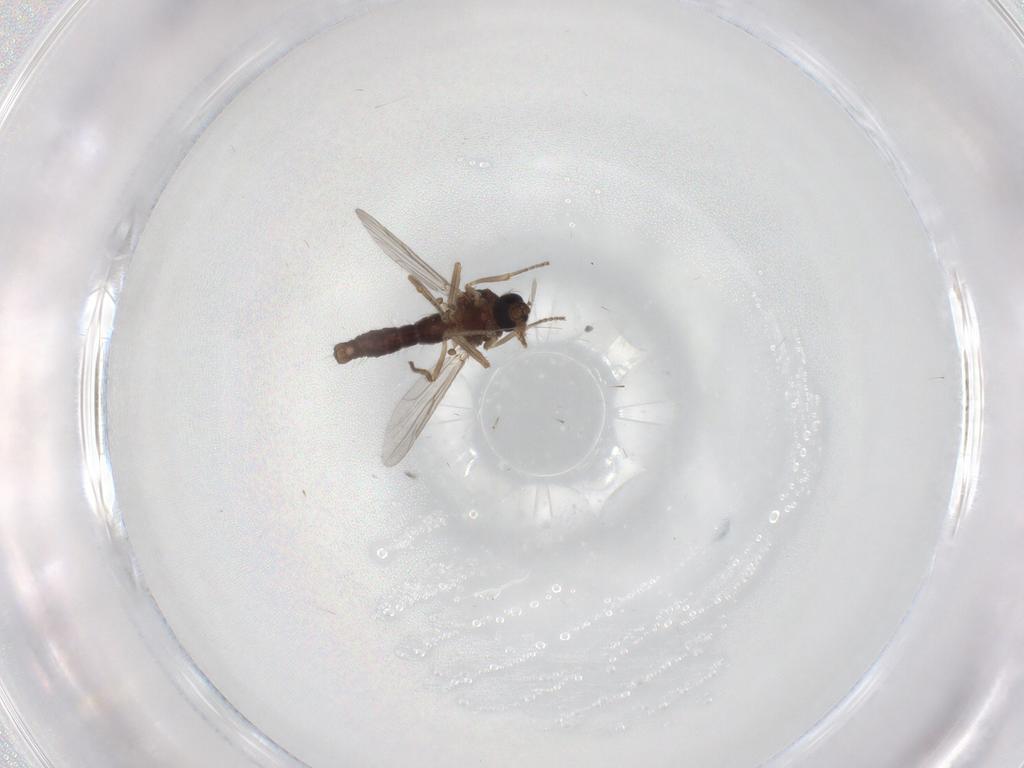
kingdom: Animalia
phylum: Arthropoda
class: Insecta
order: Diptera
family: Ceratopogonidae
